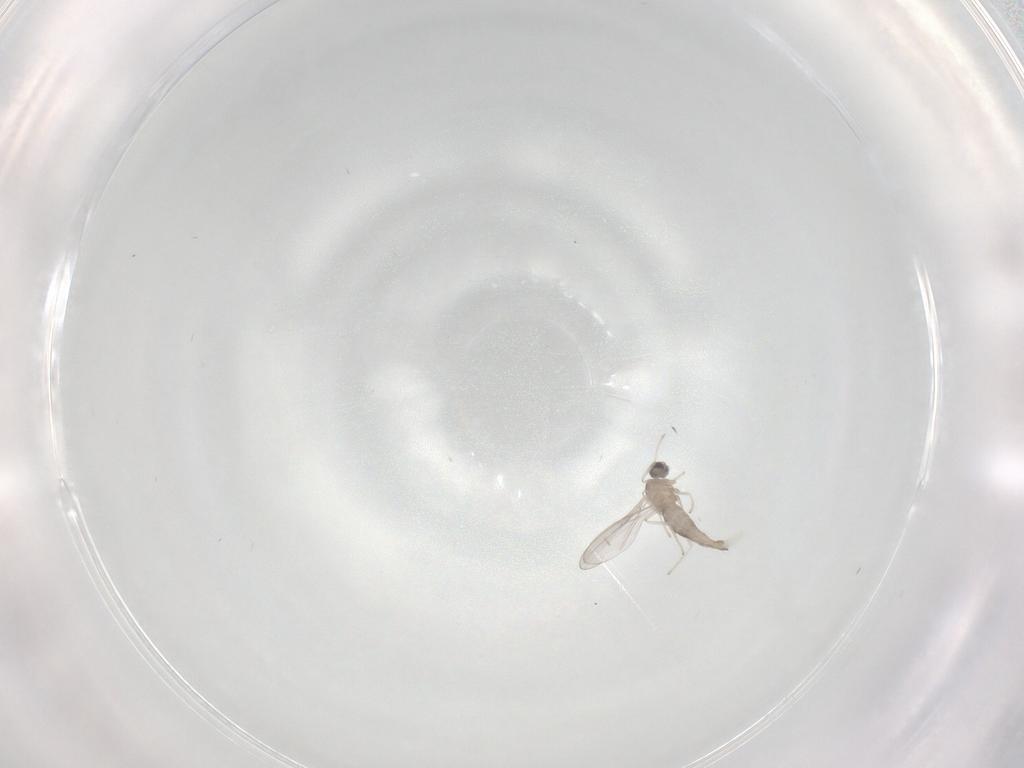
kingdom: Animalia
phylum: Arthropoda
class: Insecta
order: Diptera
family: Cecidomyiidae
